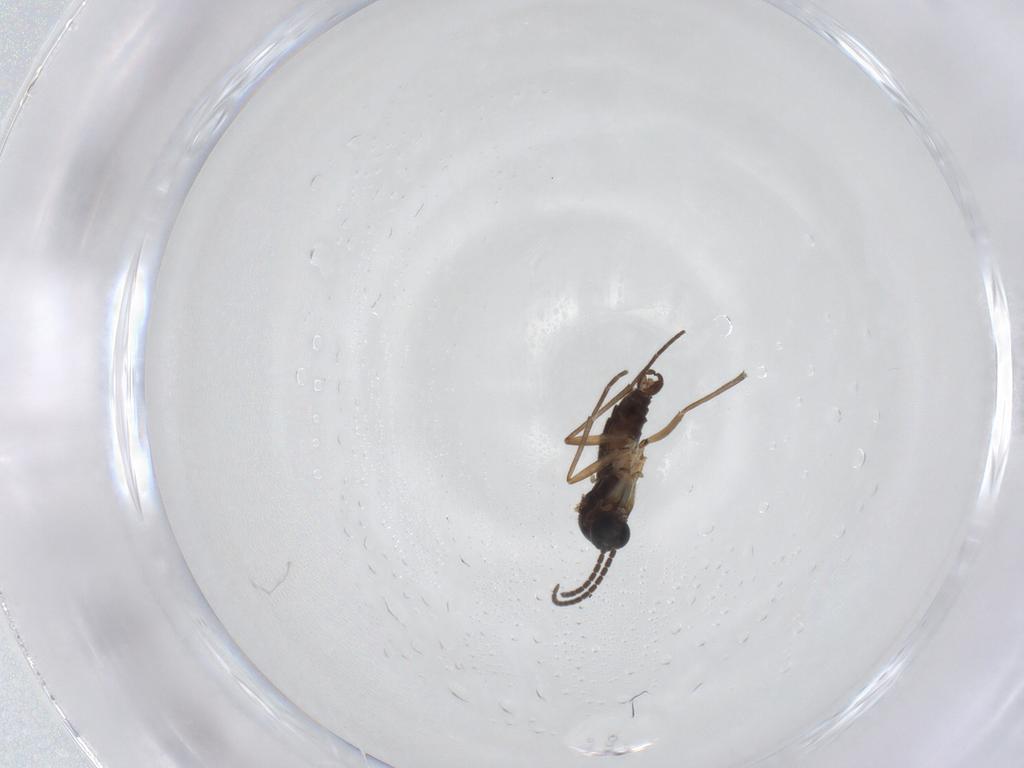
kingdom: Animalia
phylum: Arthropoda
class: Insecta
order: Diptera
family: Sciaridae
